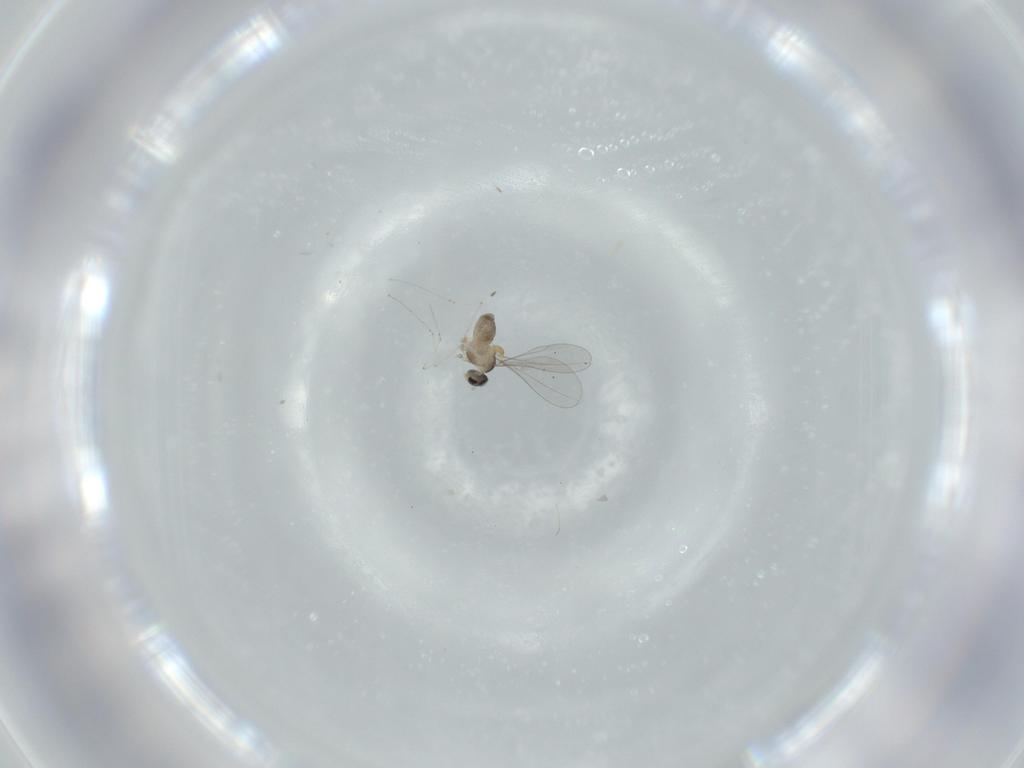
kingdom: Animalia
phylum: Arthropoda
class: Insecta
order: Diptera
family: Cecidomyiidae
